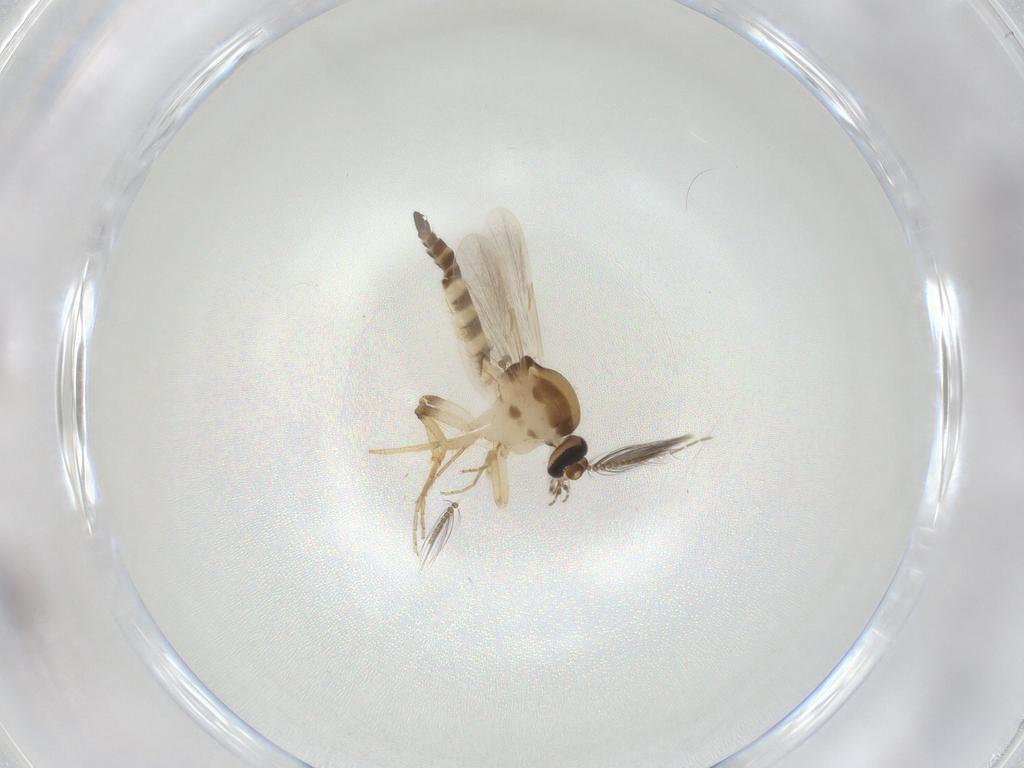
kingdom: Animalia
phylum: Arthropoda
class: Insecta
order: Diptera
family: Ceratopogonidae
